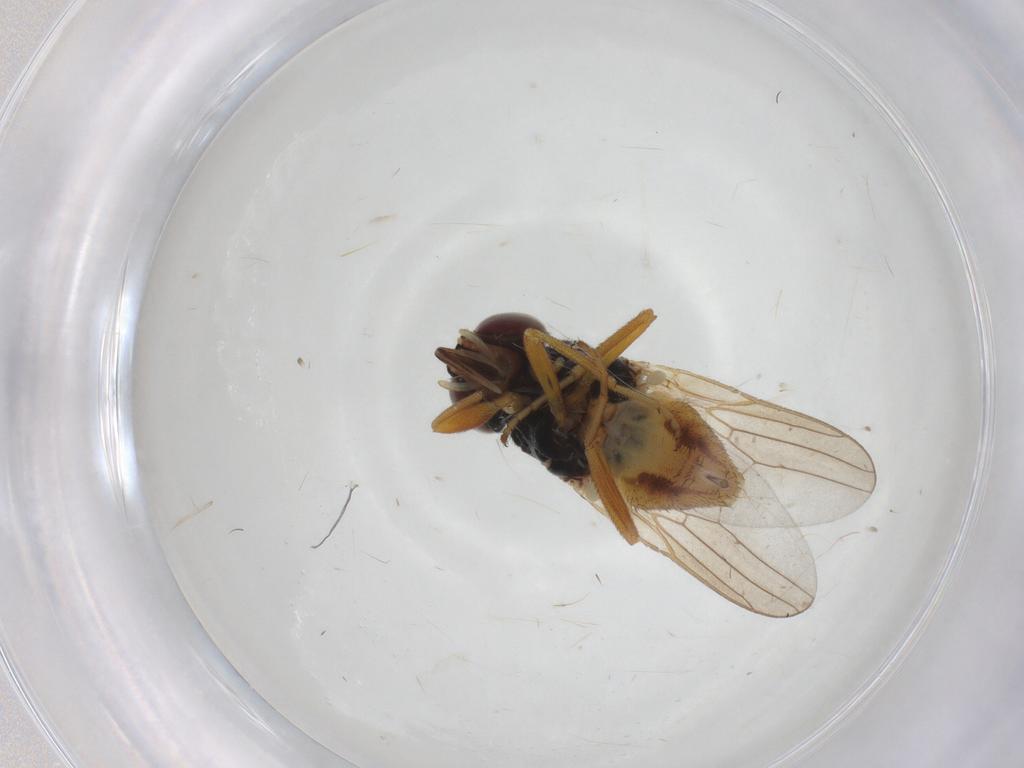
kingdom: Animalia
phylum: Arthropoda
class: Insecta
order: Diptera
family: Chloropidae
